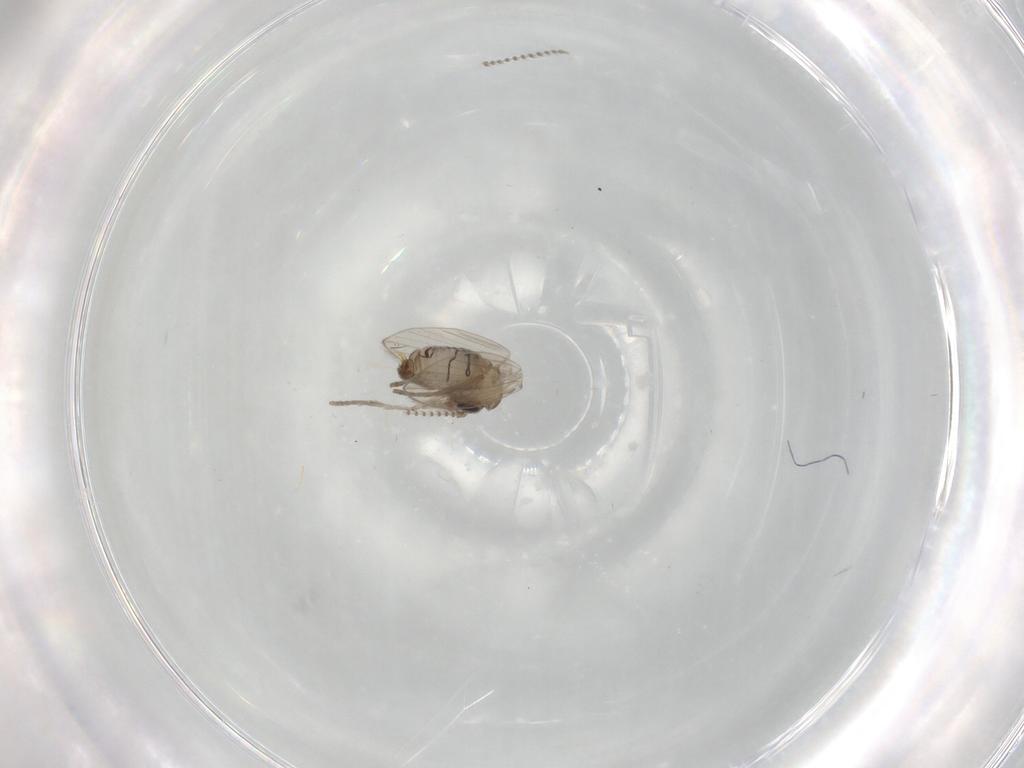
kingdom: Animalia
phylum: Arthropoda
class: Insecta
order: Diptera
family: Psychodidae
